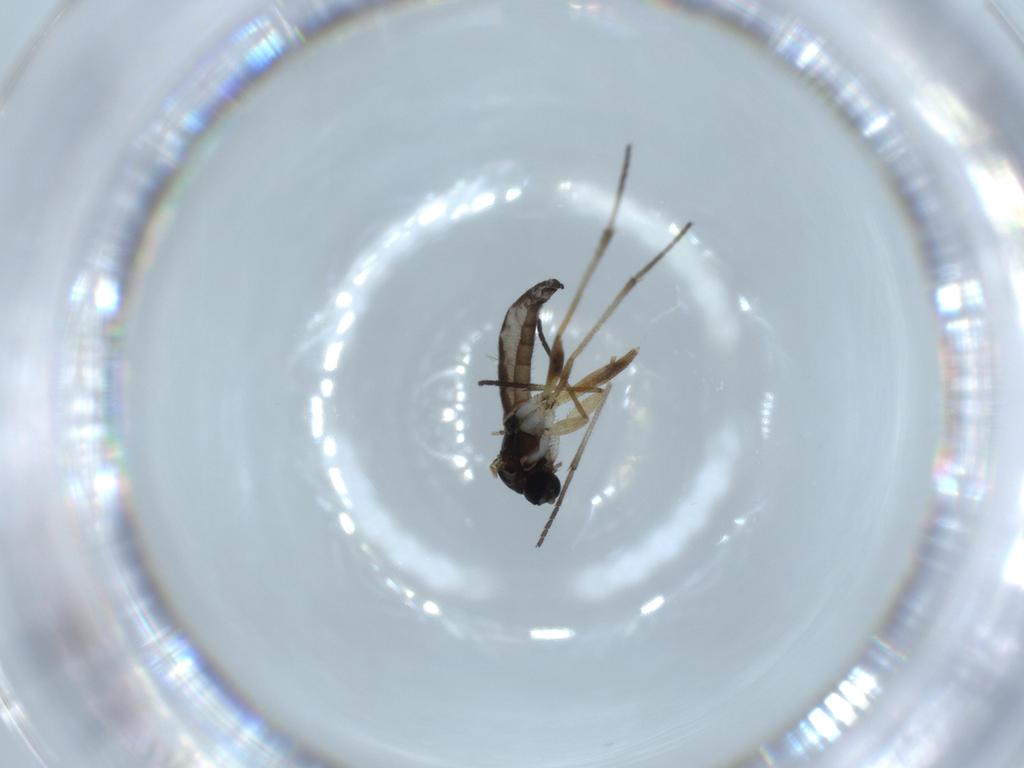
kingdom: Animalia
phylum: Arthropoda
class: Insecta
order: Diptera
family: Sciaridae
